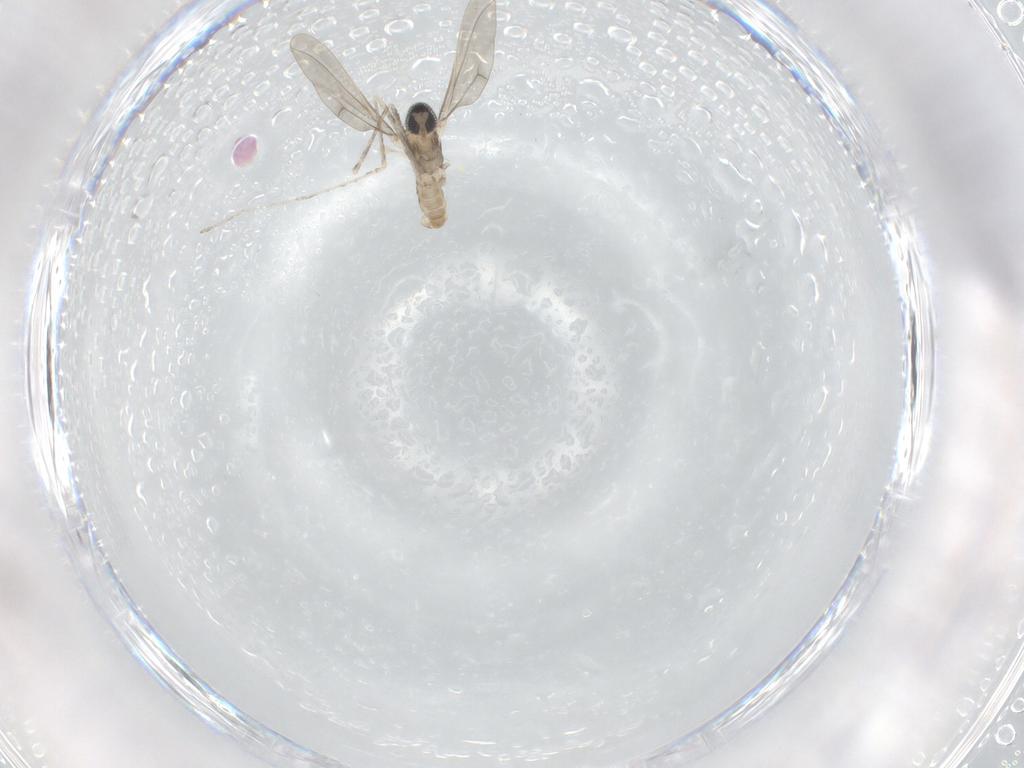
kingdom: Animalia
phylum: Arthropoda
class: Insecta
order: Diptera
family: Cecidomyiidae
